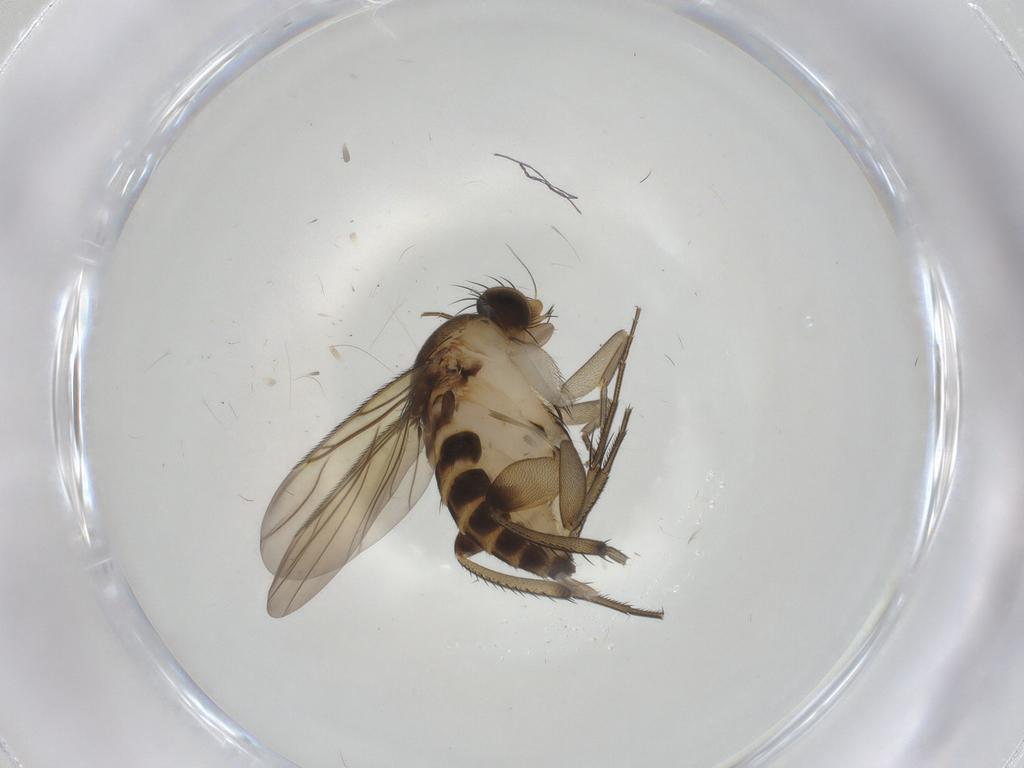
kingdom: Animalia
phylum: Arthropoda
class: Insecta
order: Diptera
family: Phoridae
